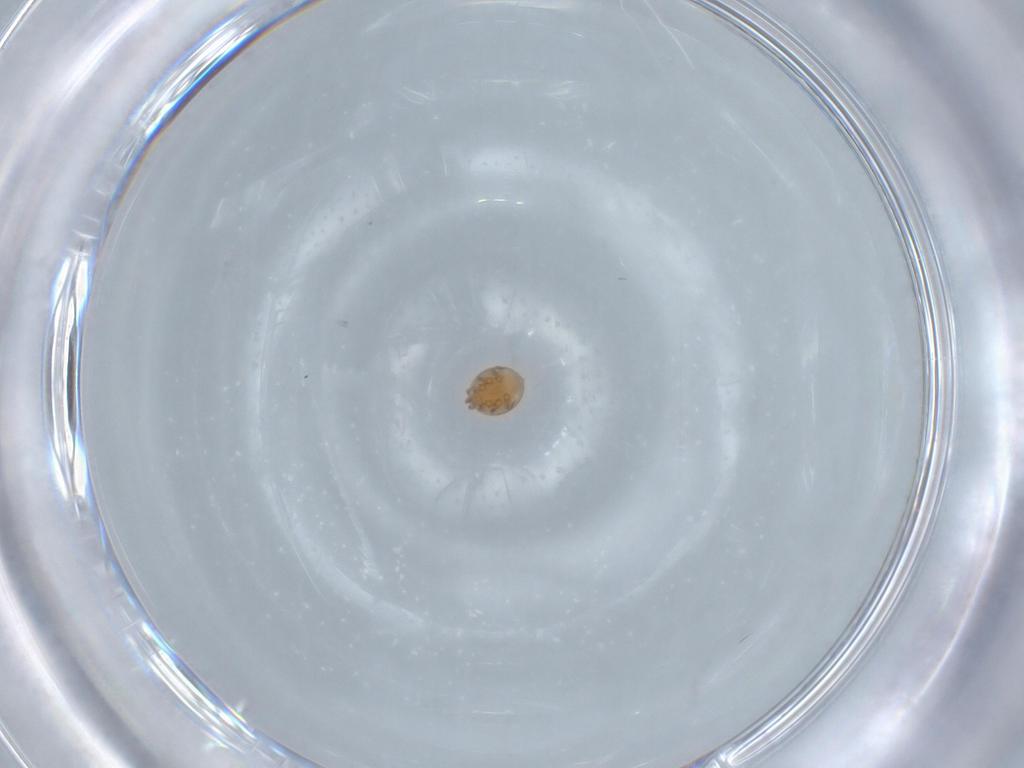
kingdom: Animalia
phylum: Arthropoda
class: Arachnida
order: Mesostigmata
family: Trematuridae
